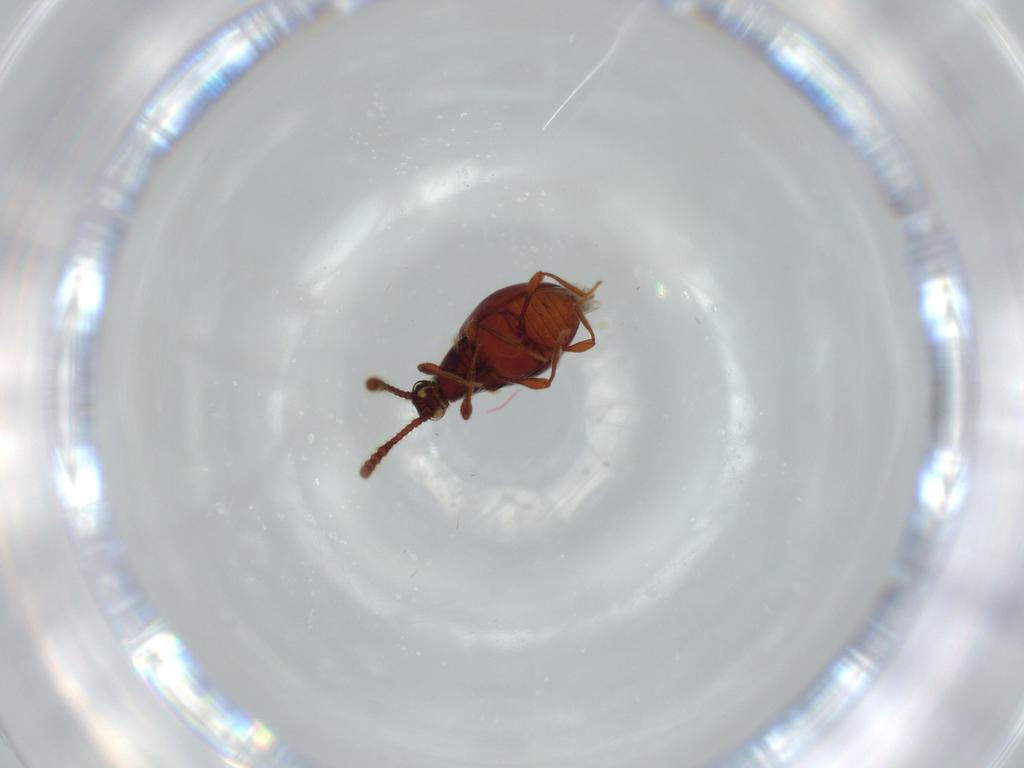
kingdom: Animalia
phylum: Arthropoda
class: Insecta
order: Coleoptera
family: Staphylinidae
